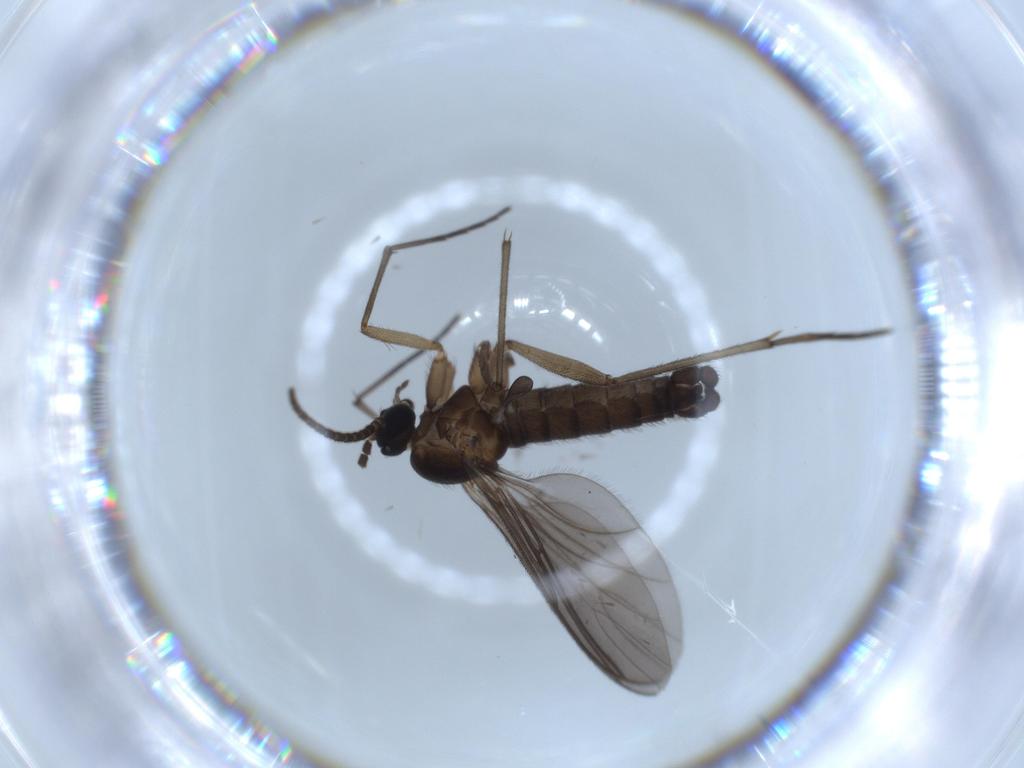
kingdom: Animalia
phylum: Arthropoda
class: Insecta
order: Diptera
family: Sciaridae
